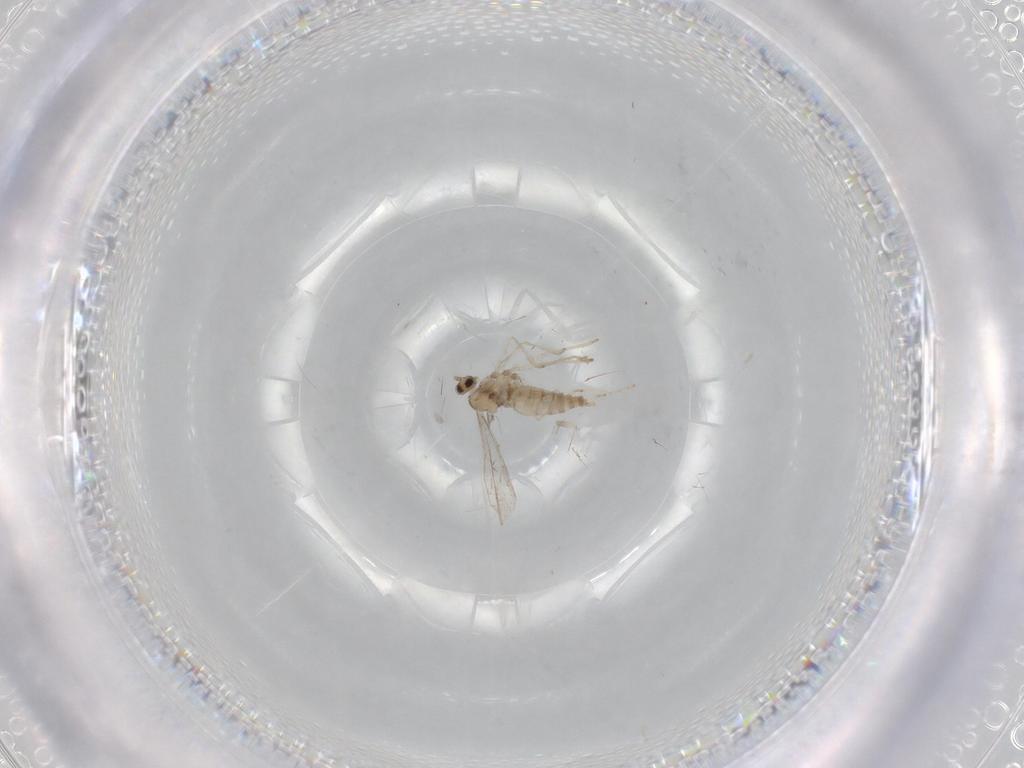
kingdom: Animalia
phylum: Arthropoda
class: Insecta
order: Diptera
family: Cecidomyiidae
